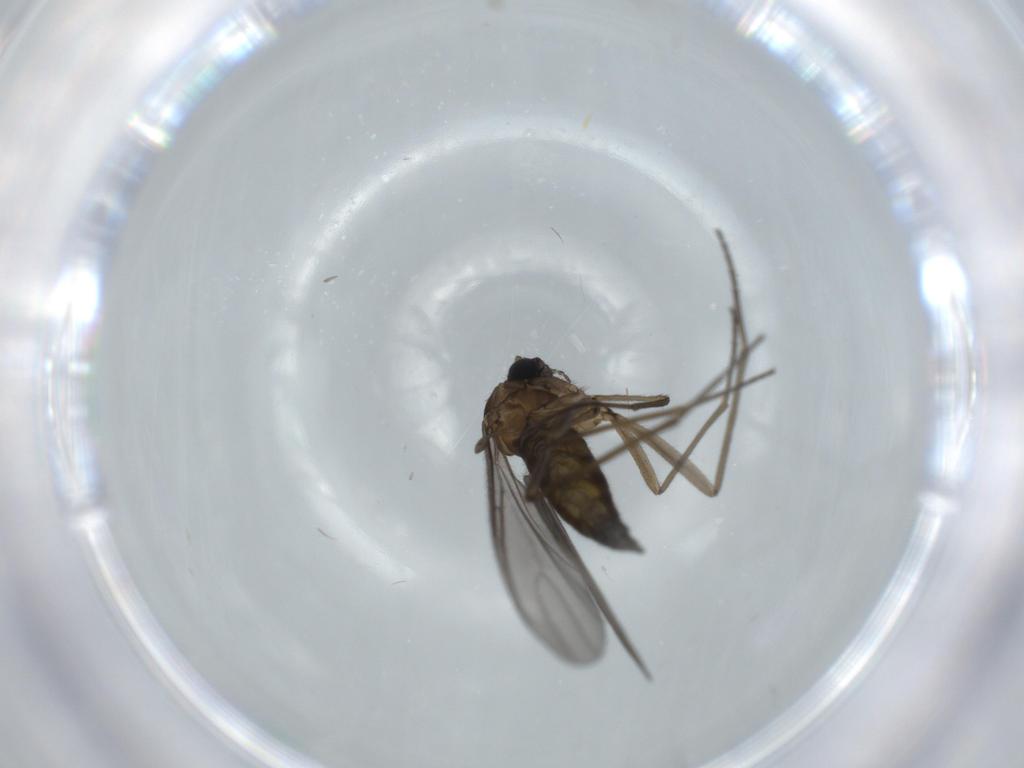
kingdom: Animalia
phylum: Arthropoda
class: Insecta
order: Diptera
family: Sciaridae
